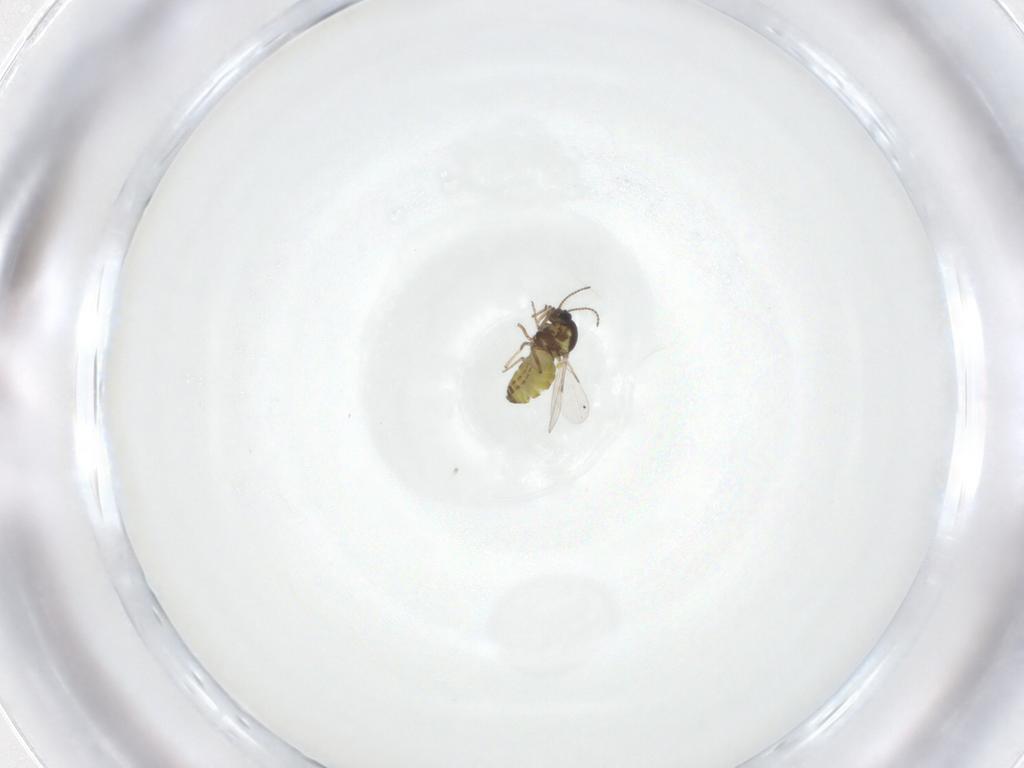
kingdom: Animalia
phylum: Arthropoda
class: Insecta
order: Diptera
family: Ceratopogonidae
